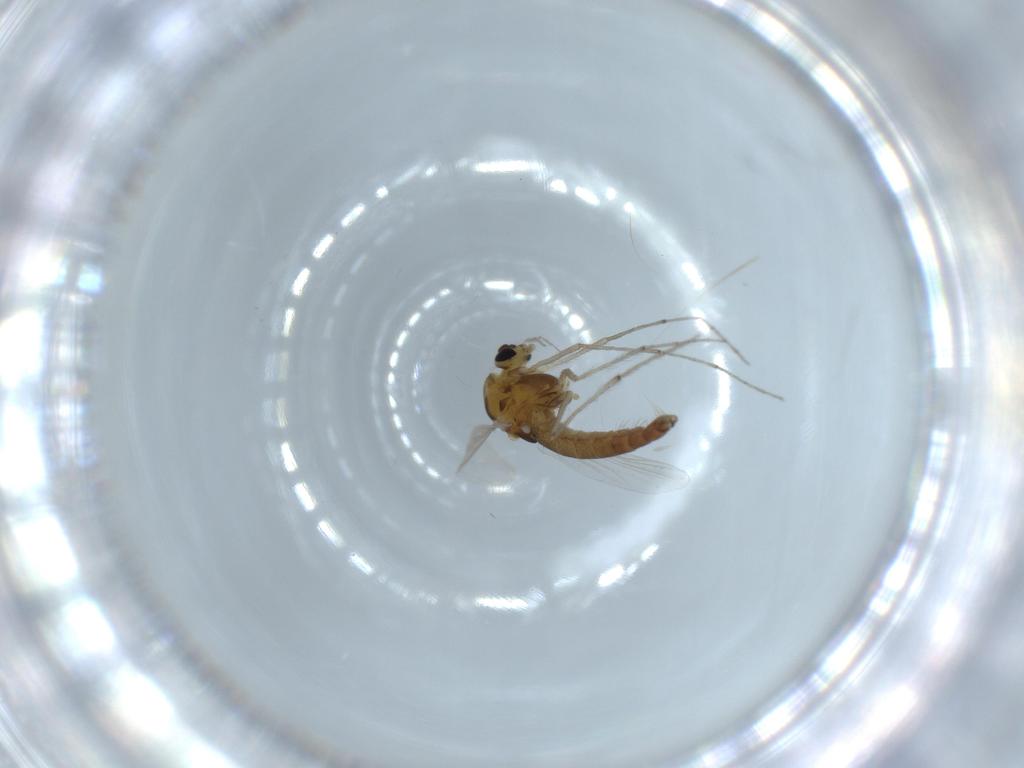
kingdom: Animalia
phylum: Arthropoda
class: Insecta
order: Diptera
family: Chironomidae
